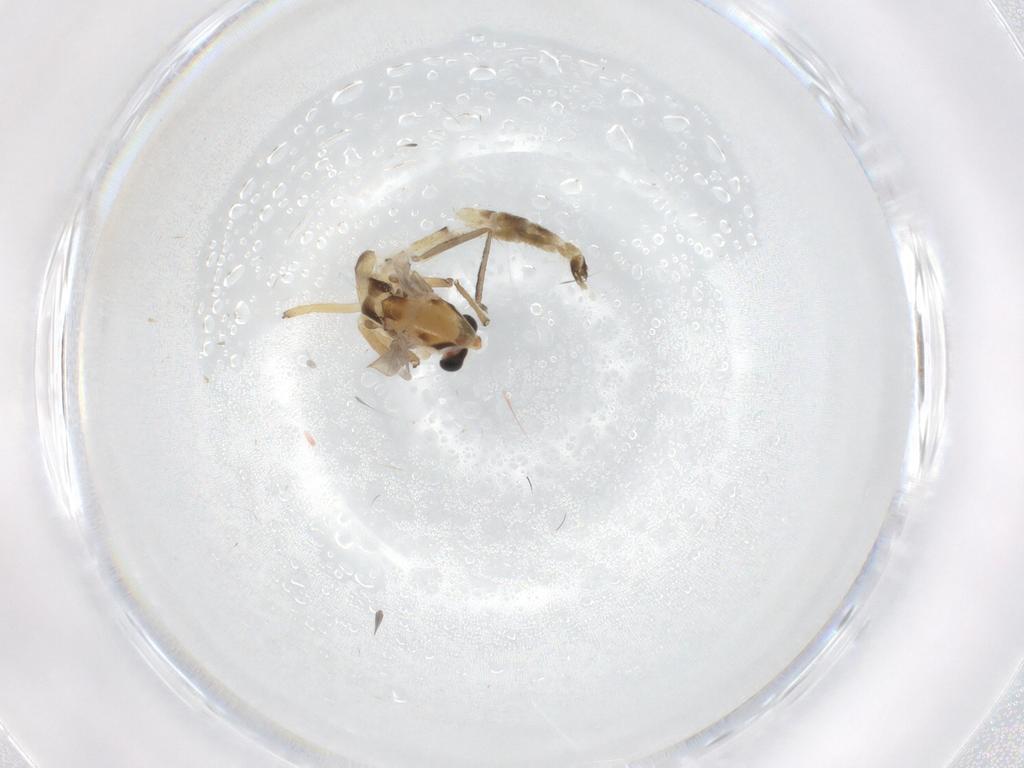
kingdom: Animalia
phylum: Arthropoda
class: Insecta
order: Diptera
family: Chironomidae
